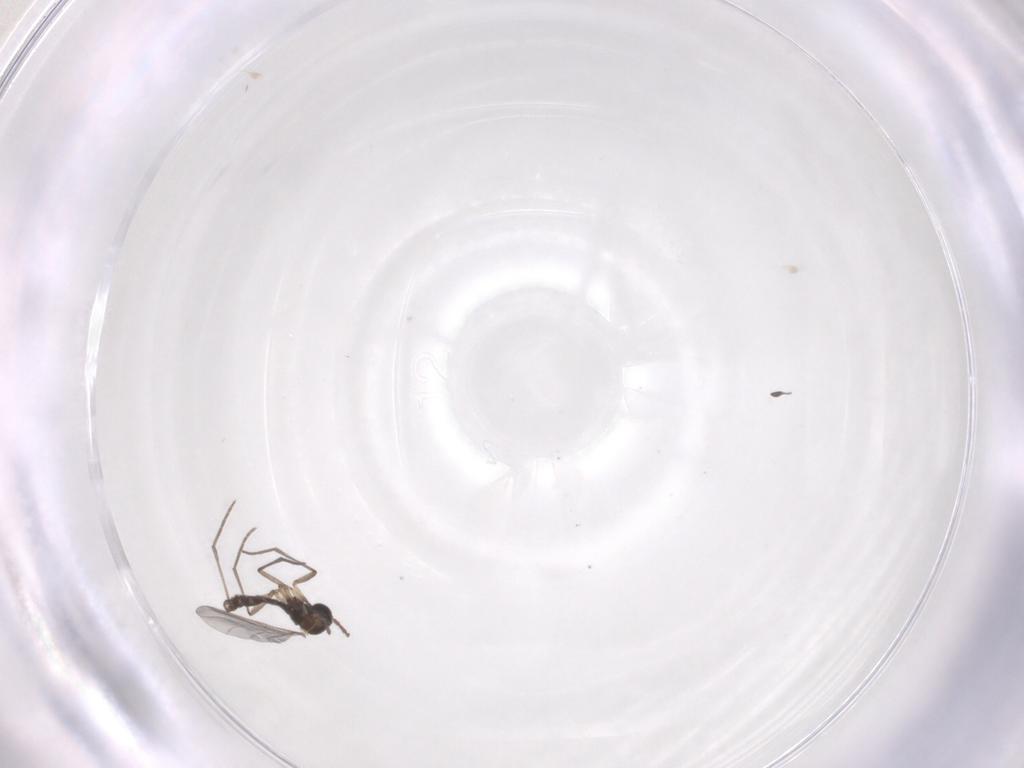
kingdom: Animalia
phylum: Arthropoda
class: Insecta
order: Diptera
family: Sciaridae
